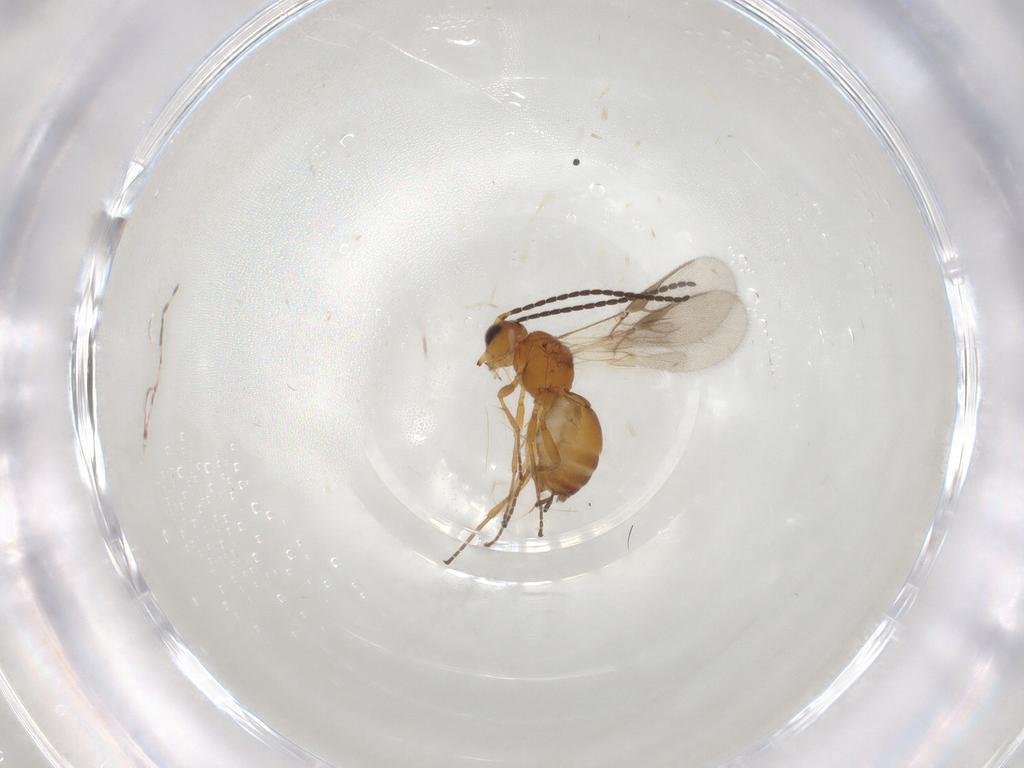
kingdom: Animalia
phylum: Arthropoda
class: Insecta
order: Hymenoptera
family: Braconidae
